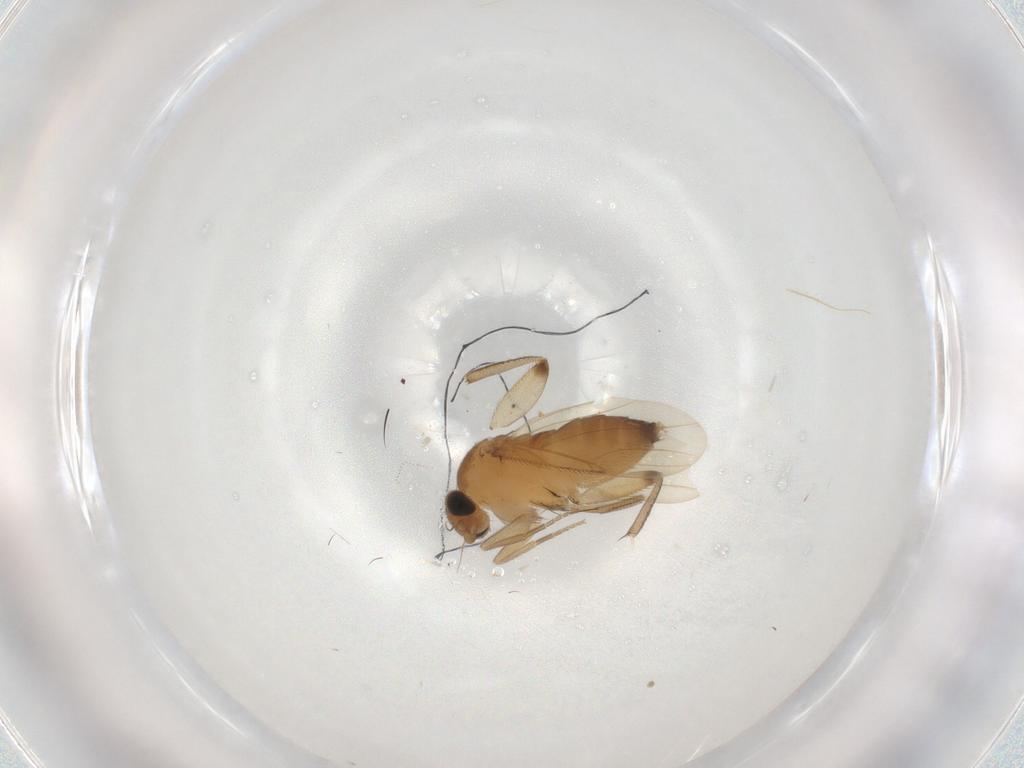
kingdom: Animalia
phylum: Arthropoda
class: Insecta
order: Diptera
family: Phoridae
